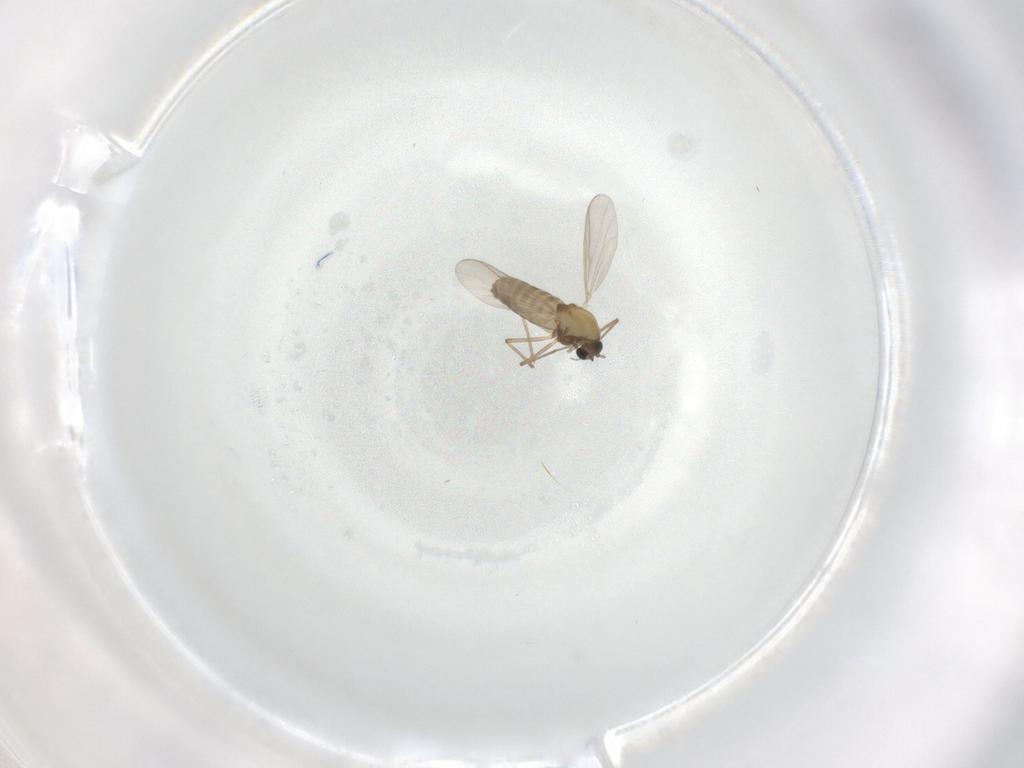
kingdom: Animalia
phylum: Arthropoda
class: Insecta
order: Diptera
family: Chironomidae
